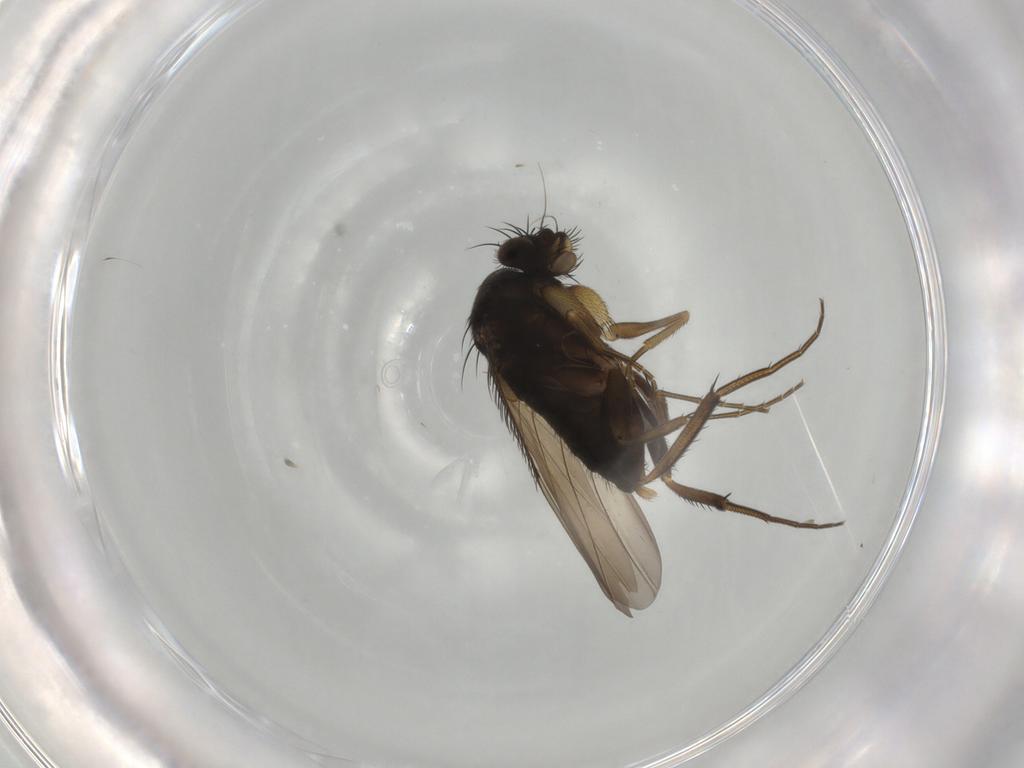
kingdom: Animalia
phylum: Arthropoda
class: Insecta
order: Diptera
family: Phoridae
